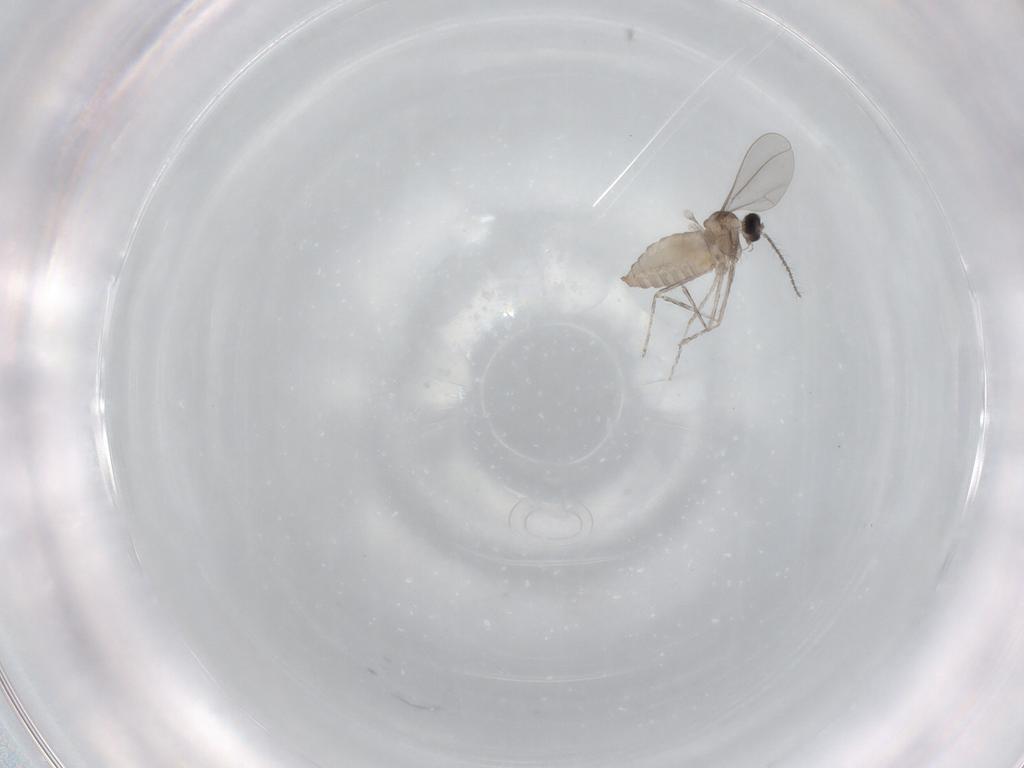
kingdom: Animalia
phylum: Arthropoda
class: Insecta
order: Diptera
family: Cecidomyiidae
